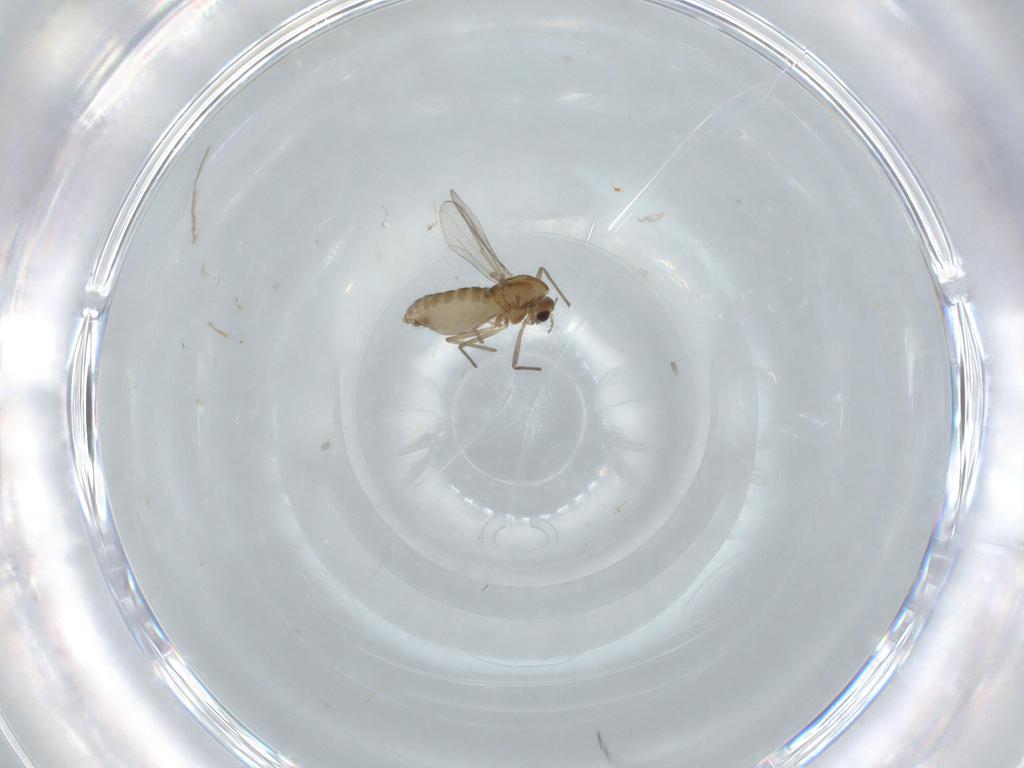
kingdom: Animalia
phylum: Arthropoda
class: Insecta
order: Diptera
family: Chironomidae
